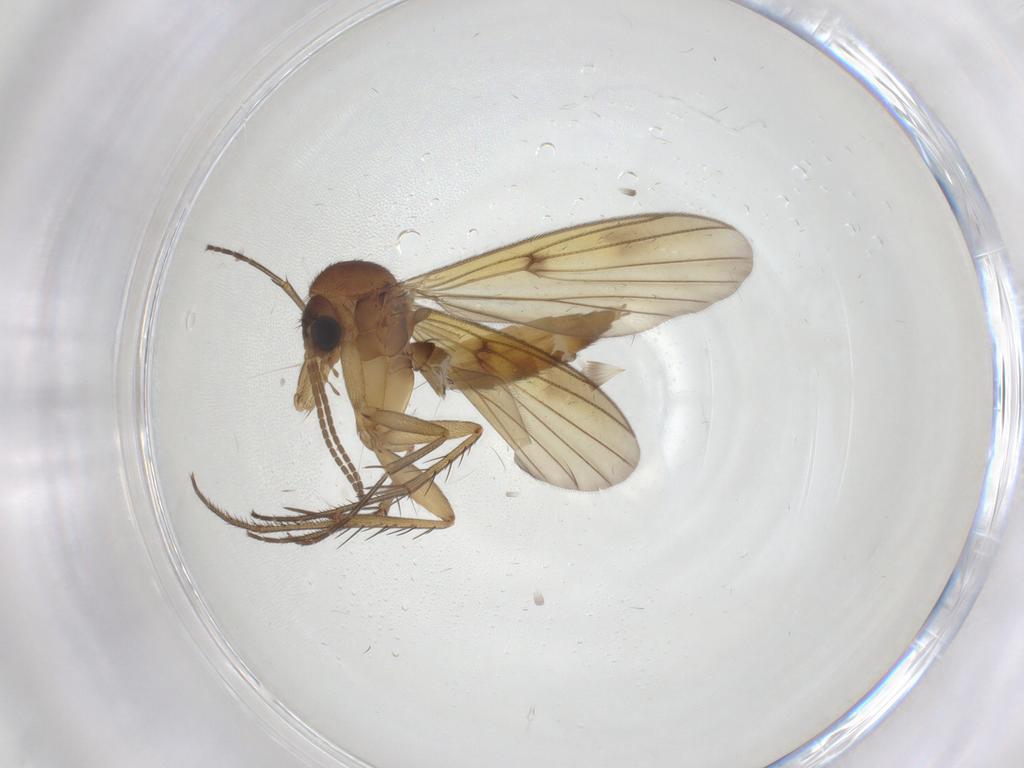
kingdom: Animalia
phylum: Arthropoda
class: Insecta
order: Diptera
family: Mycetophilidae
